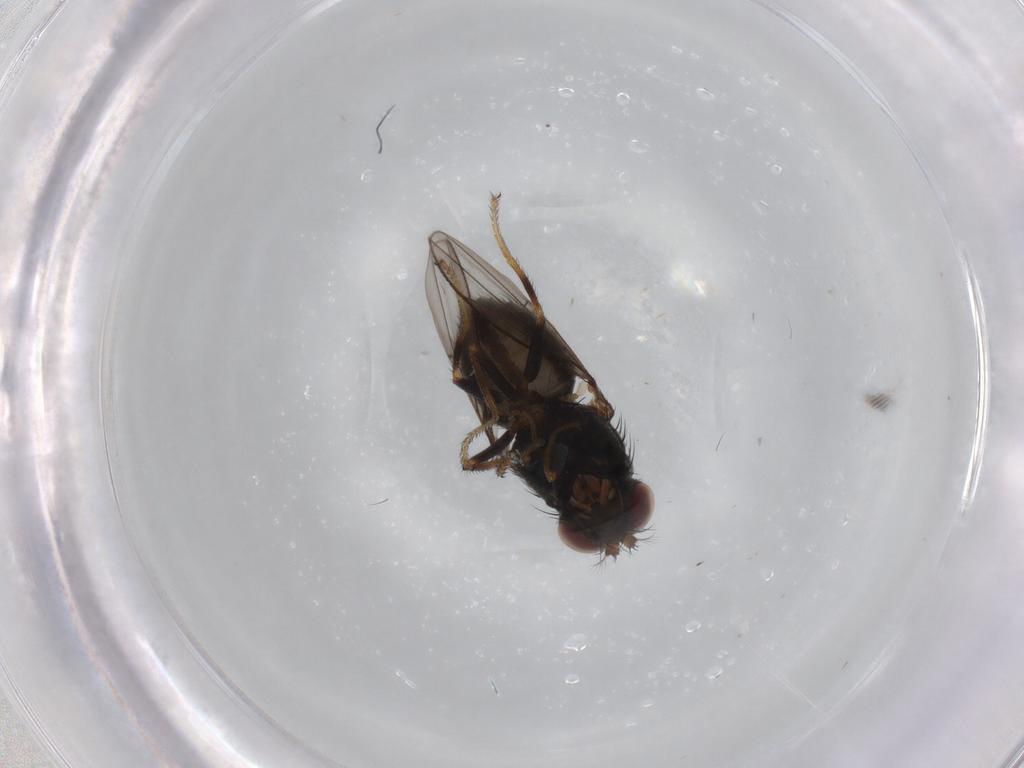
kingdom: Animalia
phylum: Arthropoda
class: Insecta
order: Diptera
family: Ephydridae
